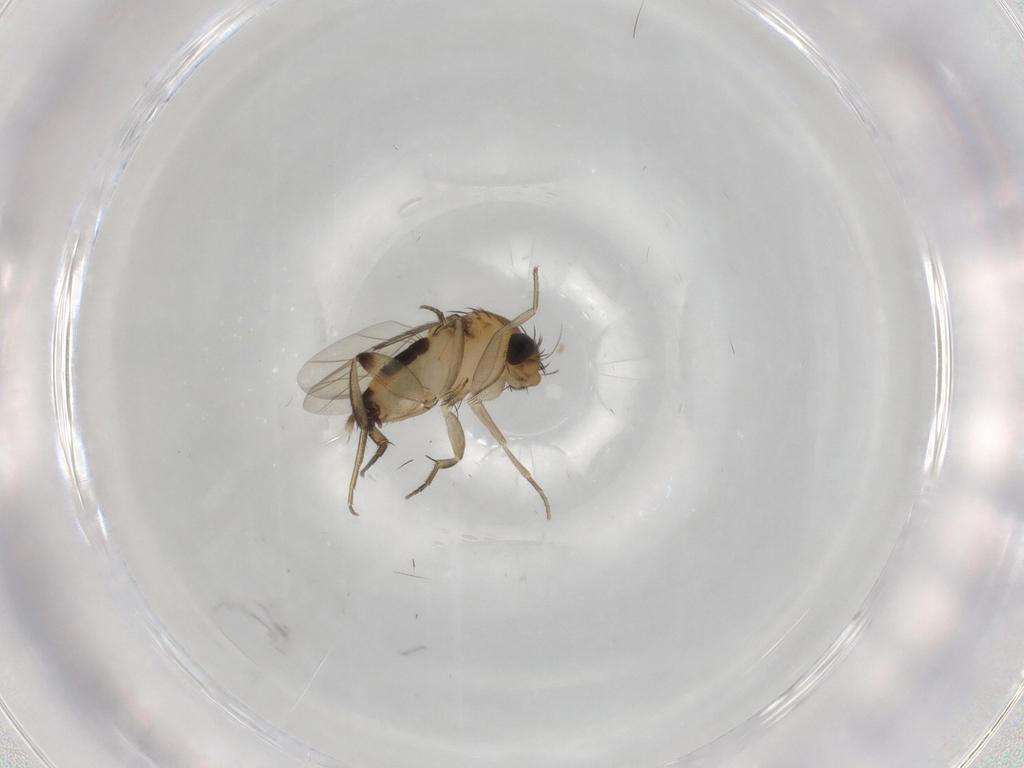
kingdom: Animalia
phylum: Arthropoda
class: Insecta
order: Diptera
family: Phoridae
